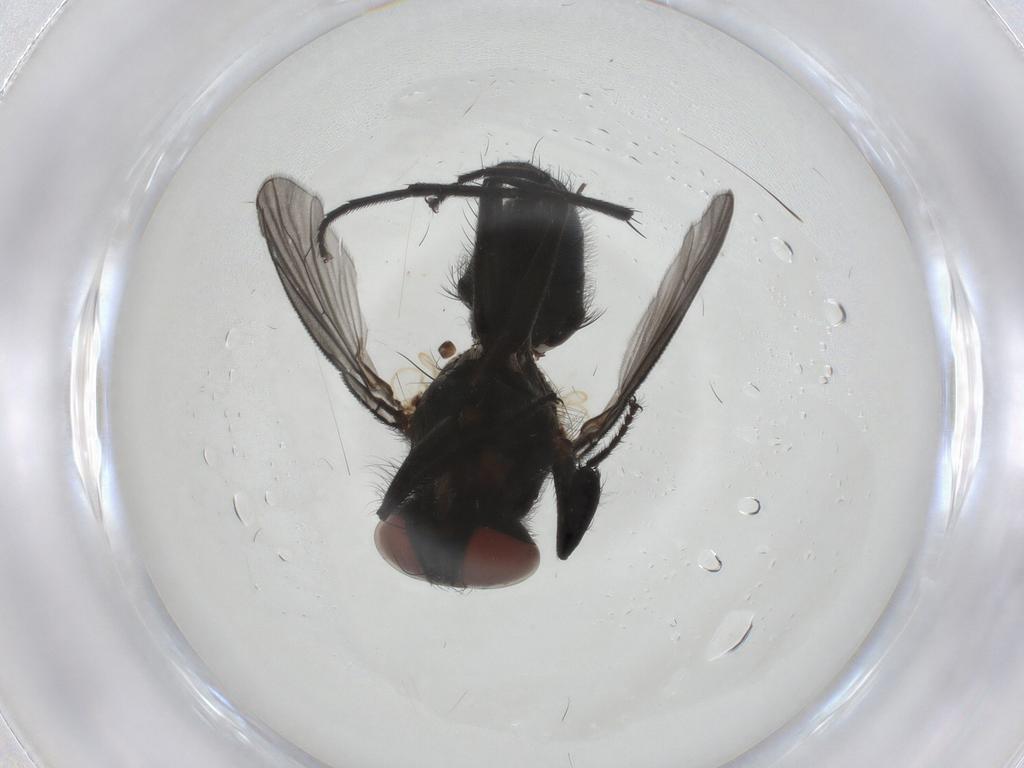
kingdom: Animalia
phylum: Arthropoda
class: Insecta
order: Diptera
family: Muscidae
